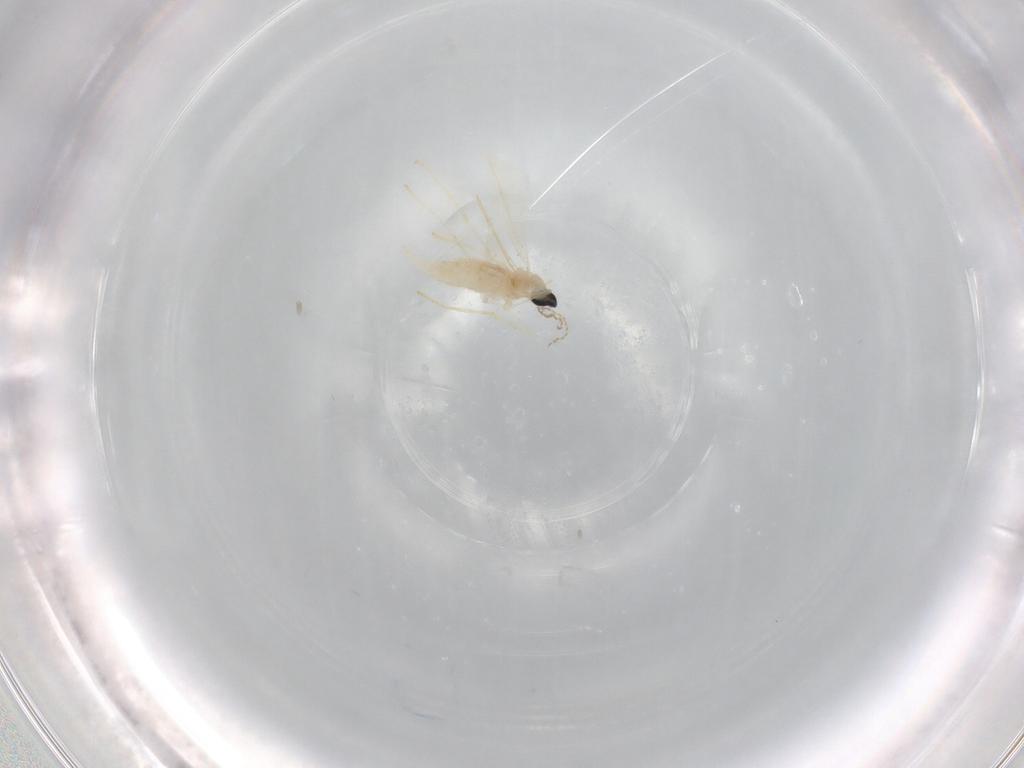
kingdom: Animalia
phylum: Arthropoda
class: Insecta
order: Diptera
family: Cecidomyiidae
